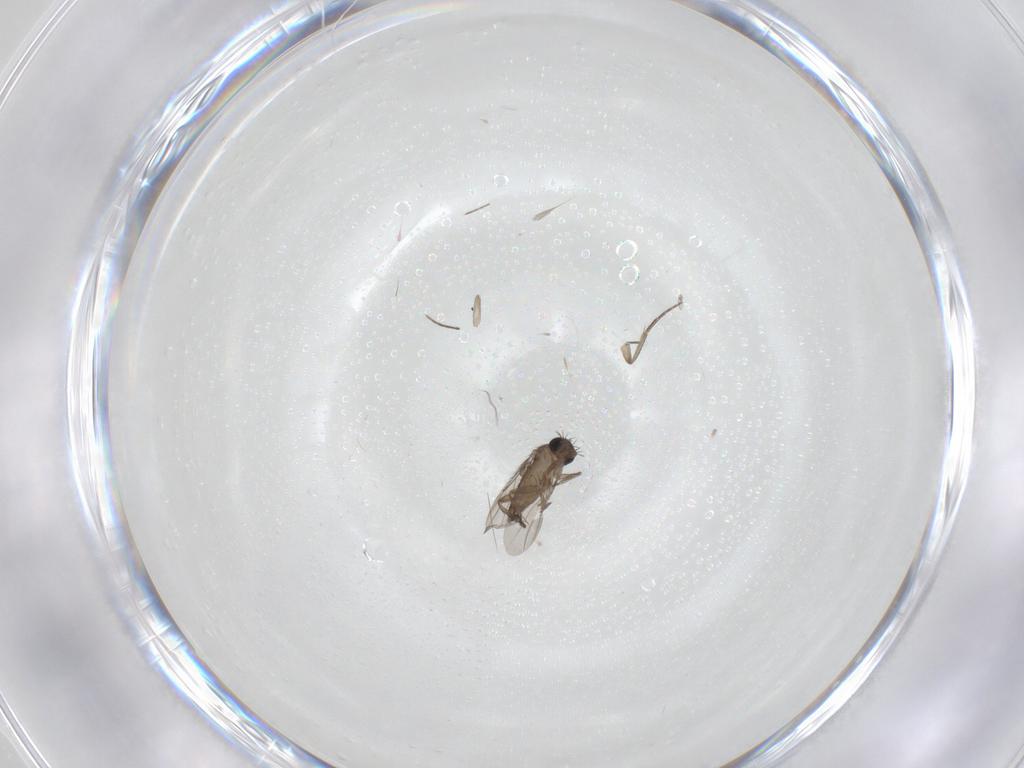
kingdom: Animalia
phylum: Arthropoda
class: Insecta
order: Diptera
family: Phoridae
